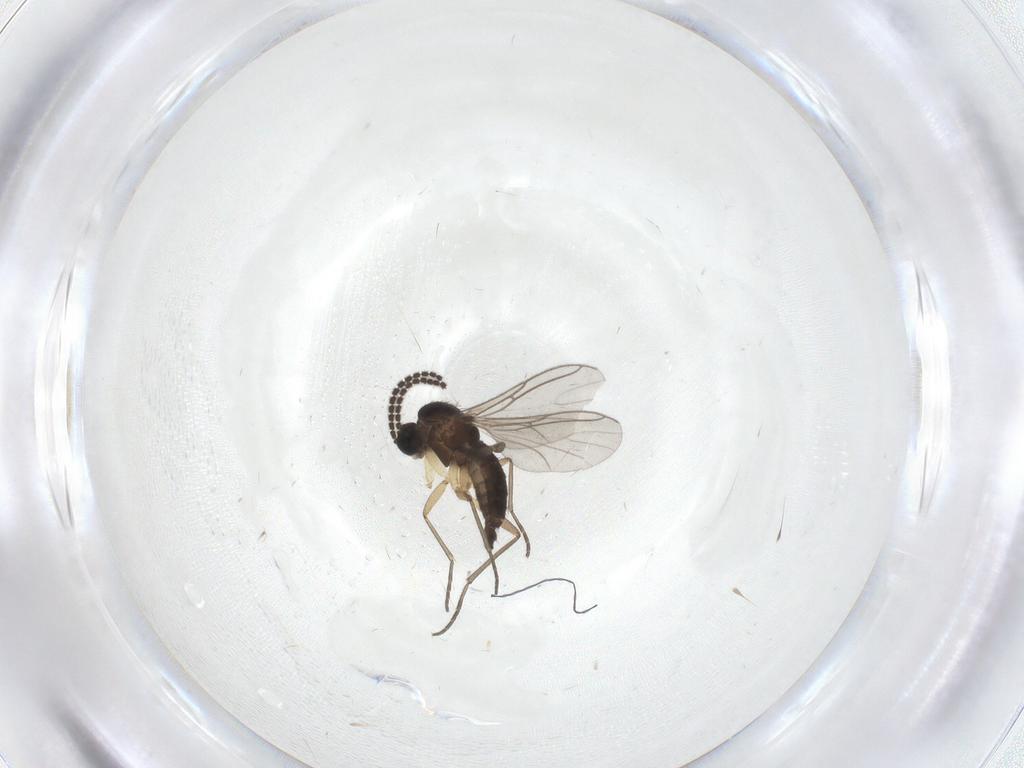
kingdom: Animalia
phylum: Arthropoda
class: Insecta
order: Diptera
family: Sciaridae
